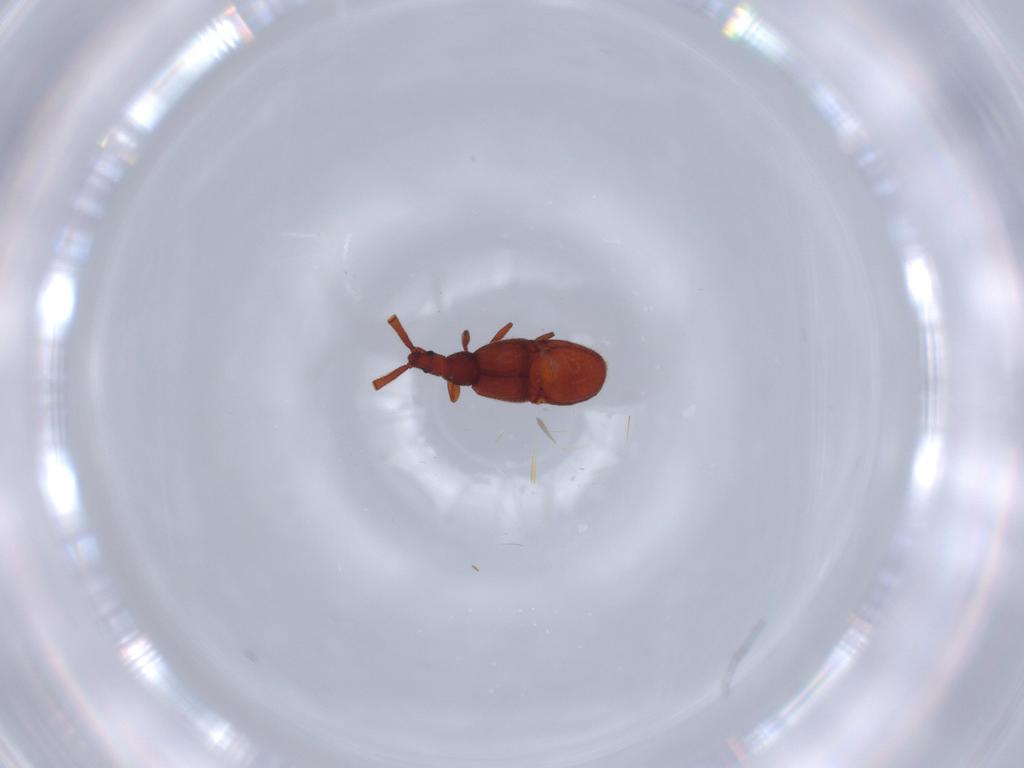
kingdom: Animalia
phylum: Arthropoda
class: Insecta
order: Coleoptera
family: Staphylinidae
